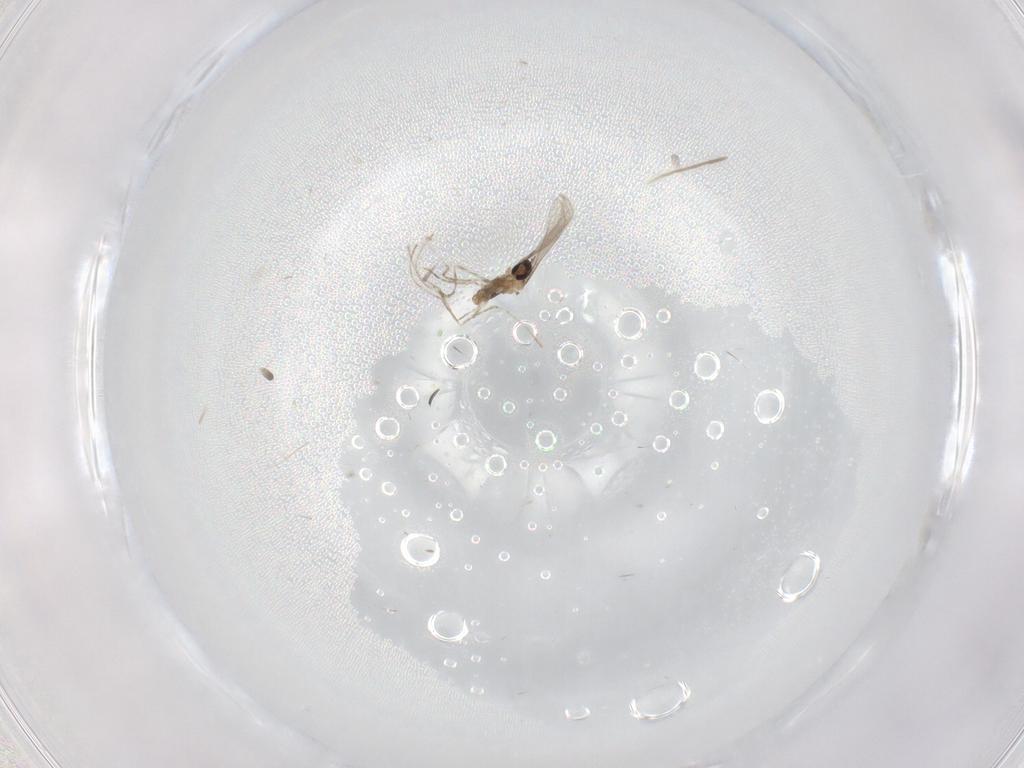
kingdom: Animalia
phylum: Arthropoda
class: Insecta
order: Diptera
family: Cecidomyiidae
